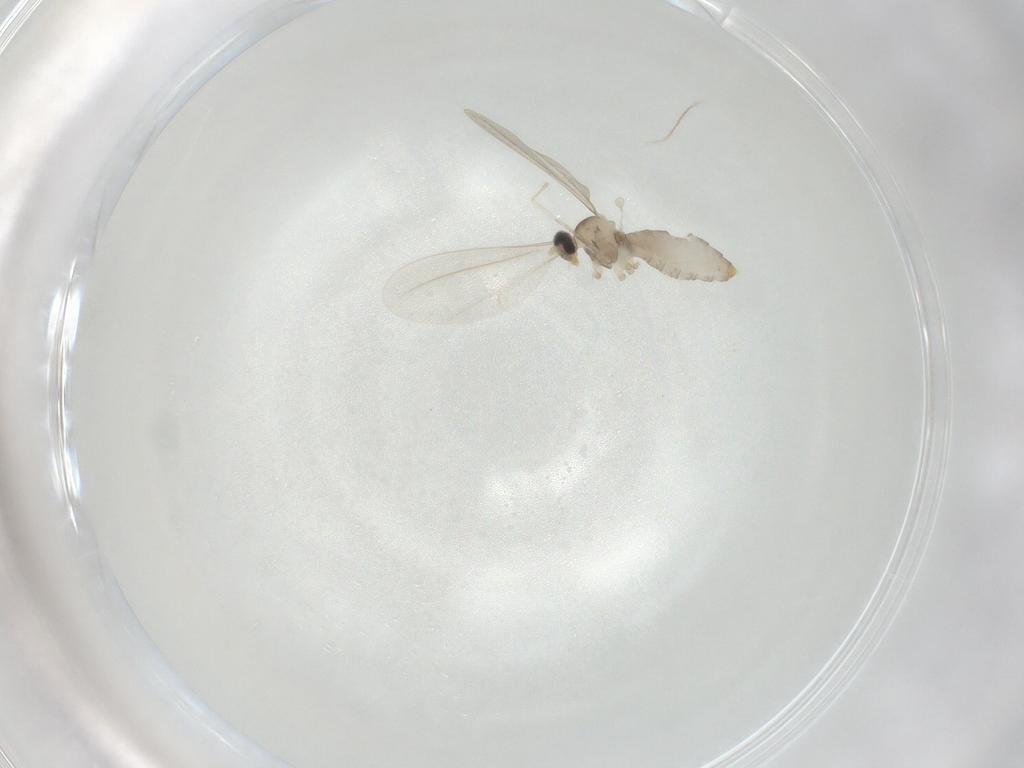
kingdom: Animalia
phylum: Arthropoda
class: Insecta
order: Diptera
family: Cecidomyiidae
